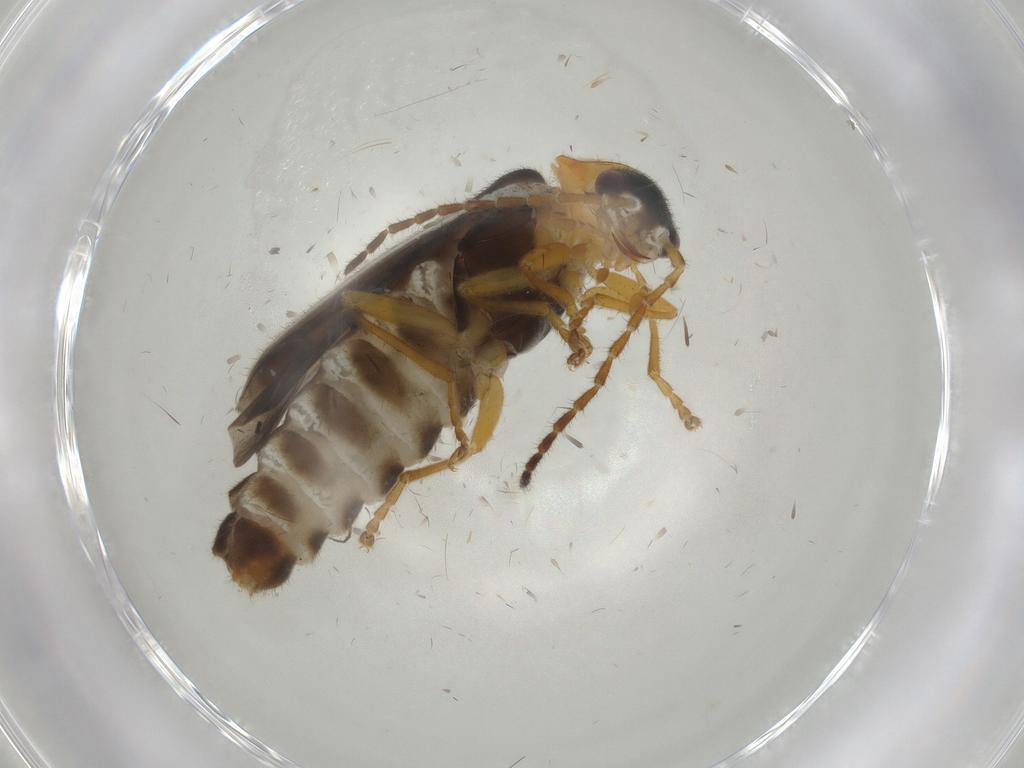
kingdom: Animalia
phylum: Arthropoda
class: Insecta
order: Coleoptera
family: Cantharidae
